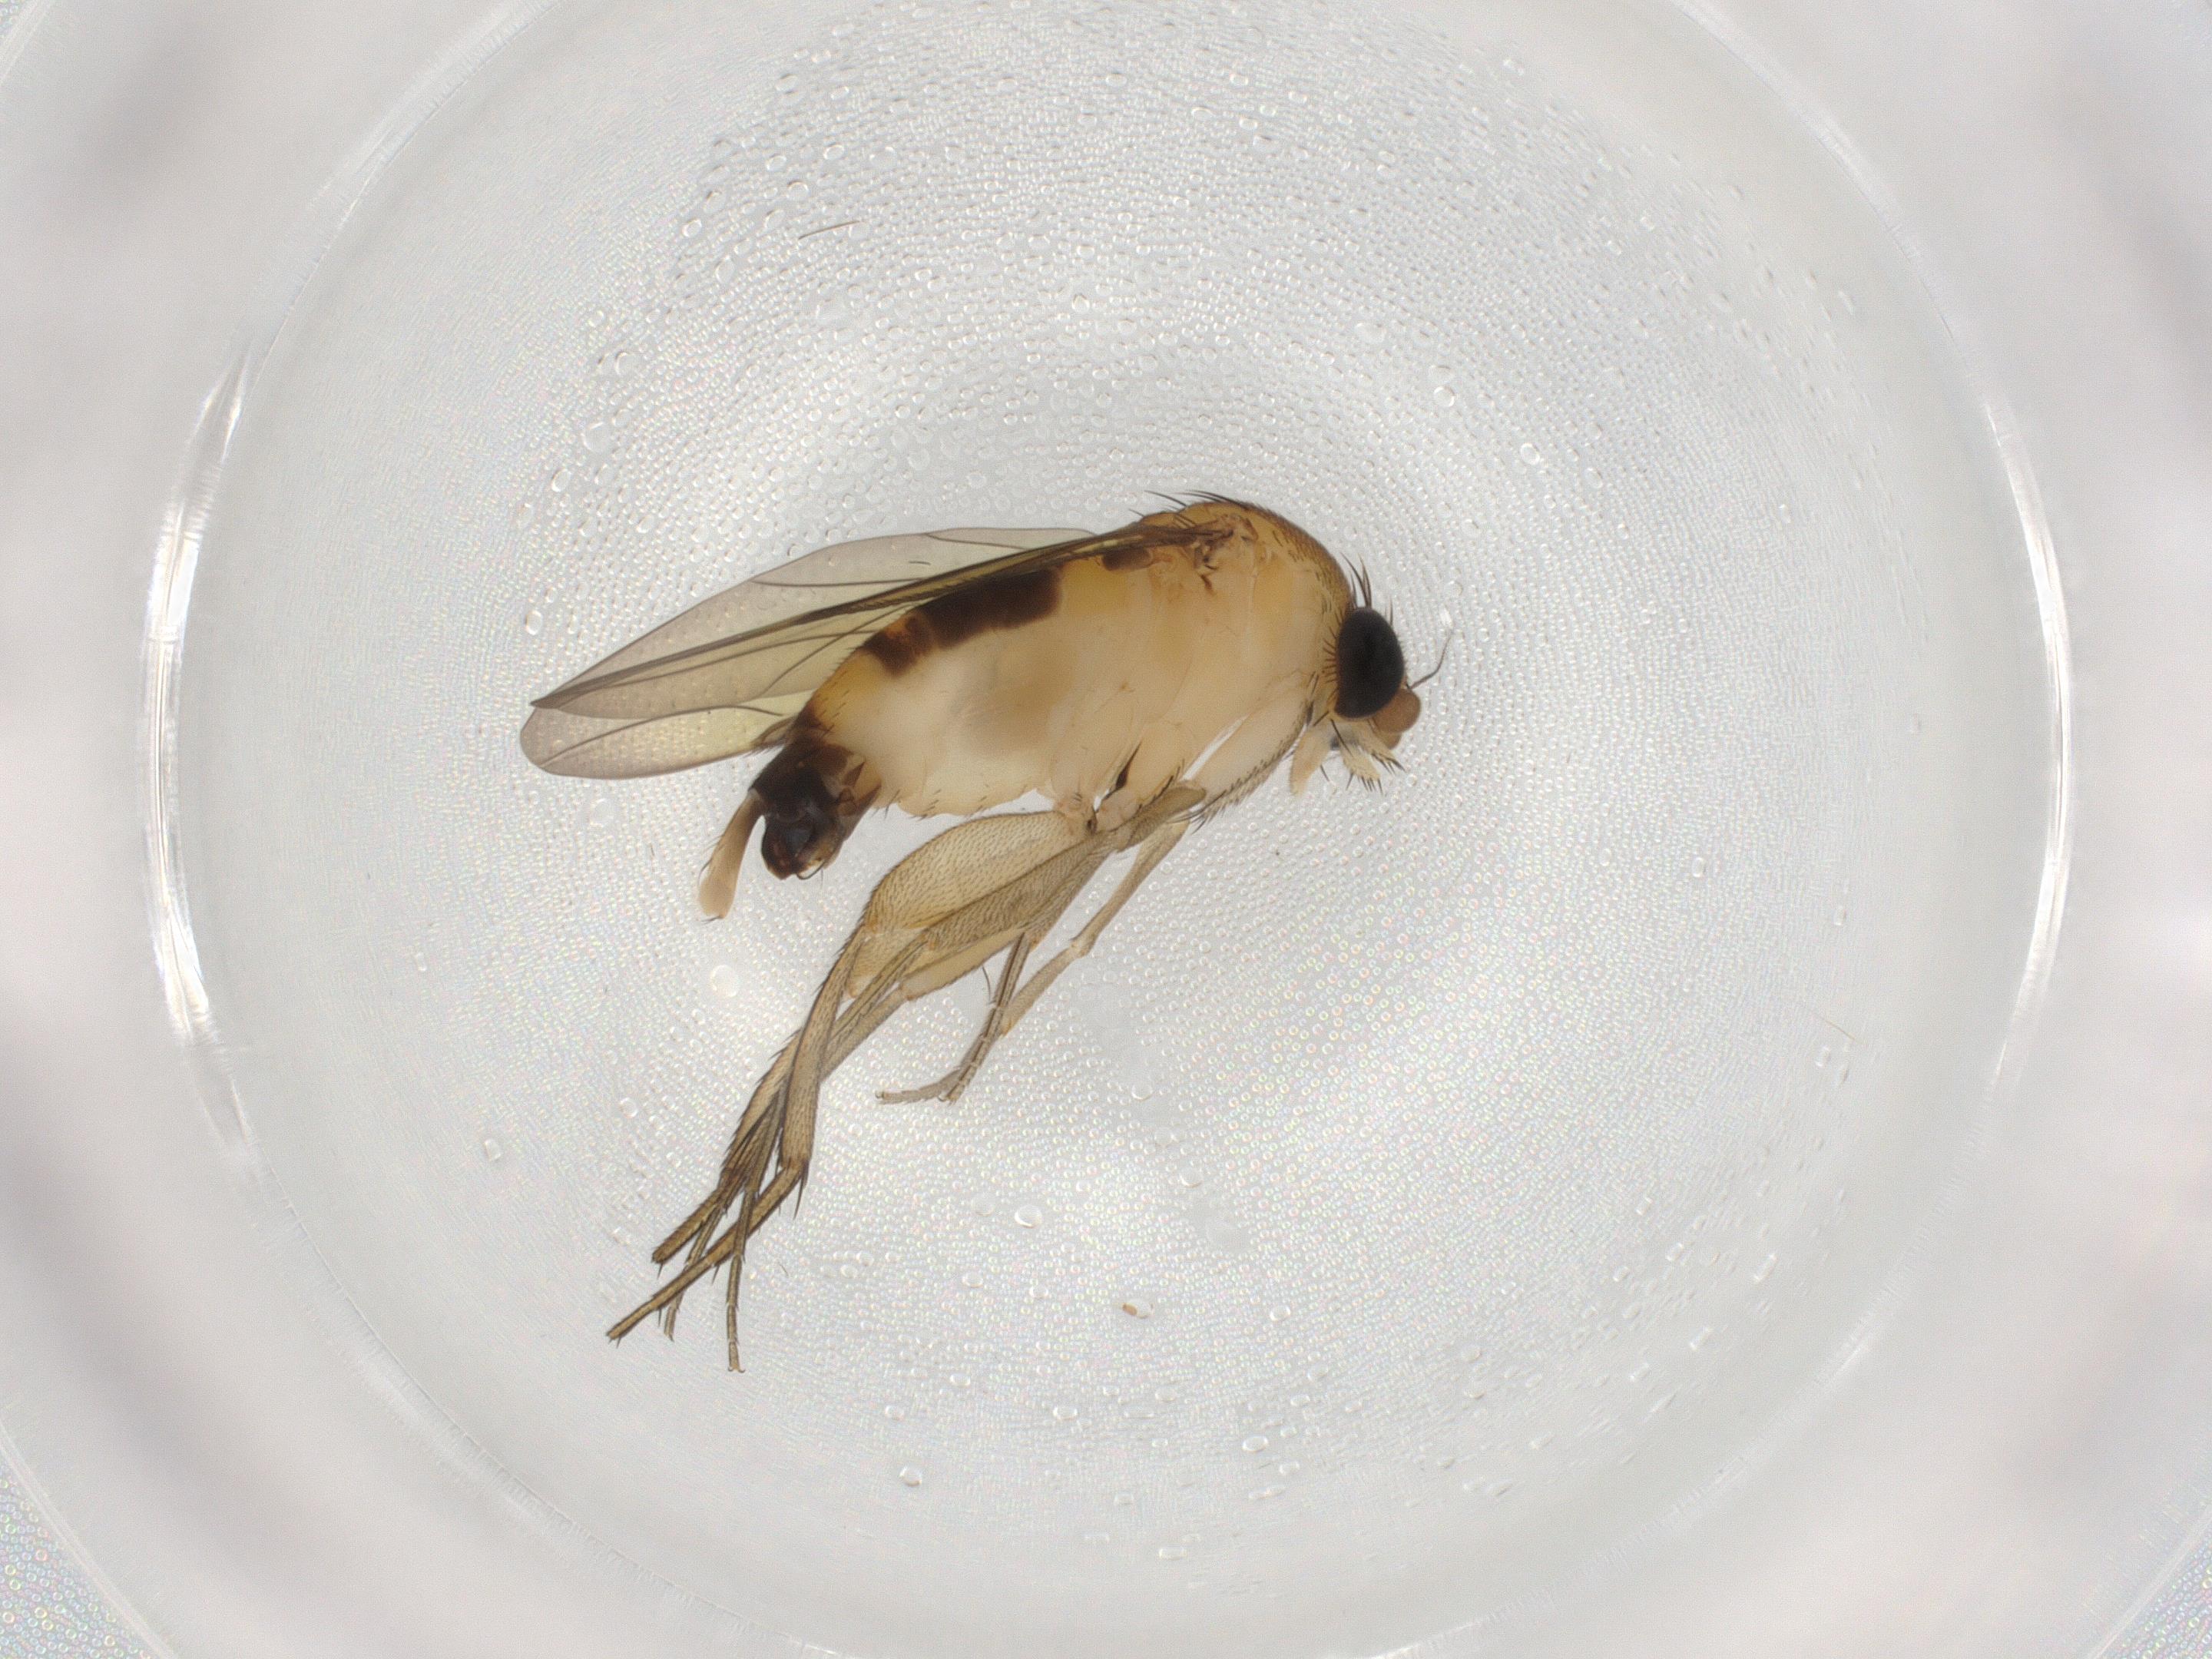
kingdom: Animalia
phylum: Arthropoda
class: Insecta
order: Diptera
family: Phoridae
